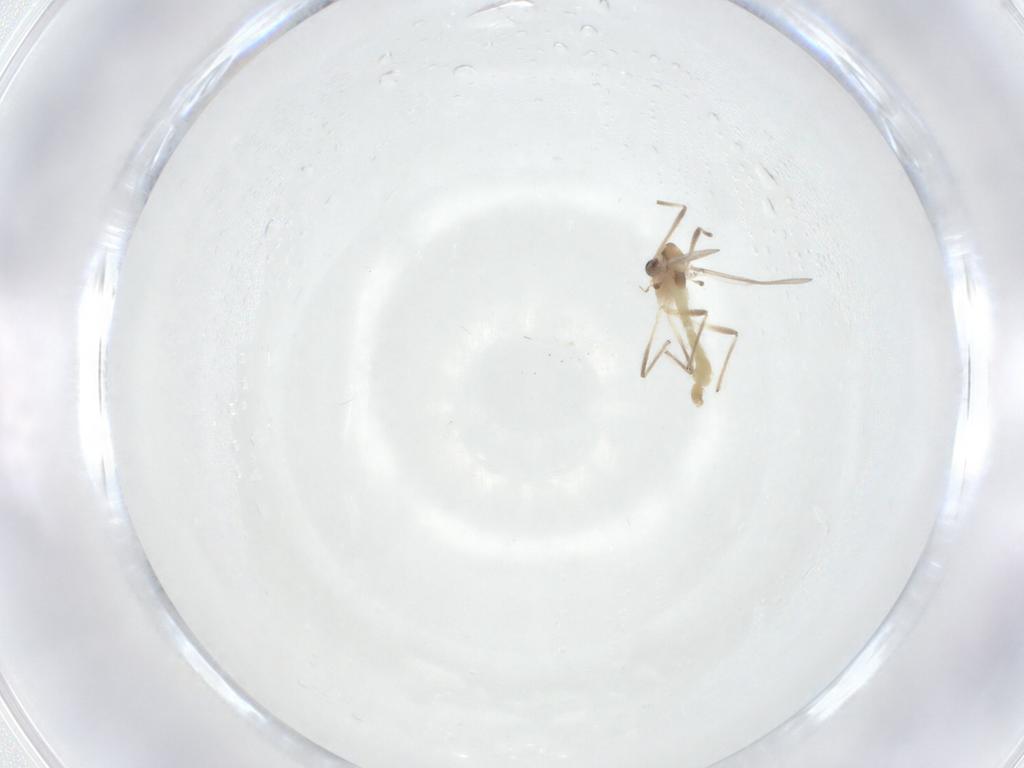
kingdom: Animalia
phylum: Arthropoda
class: Insecta
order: Diptera
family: Chironomidae
